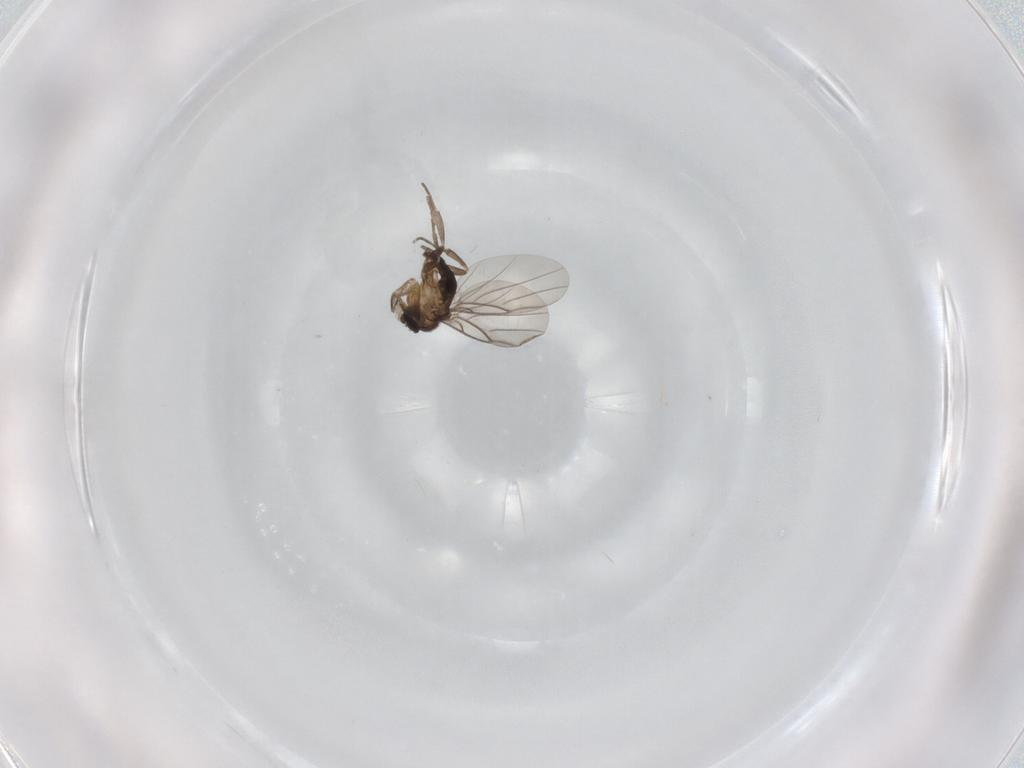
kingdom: Animalia
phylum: Arthropoda
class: Insecta
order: Diptera
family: Phoridae
